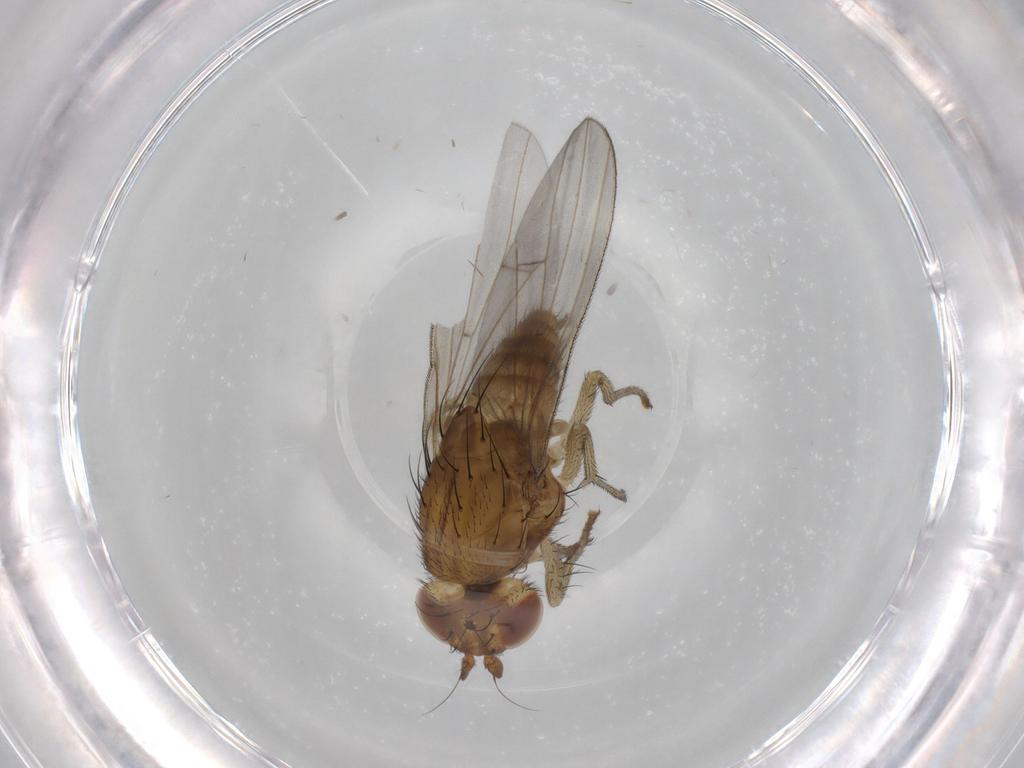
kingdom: Animalia
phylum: Arthropoda
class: Insecta
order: Diptera
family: Lauxaniidae
